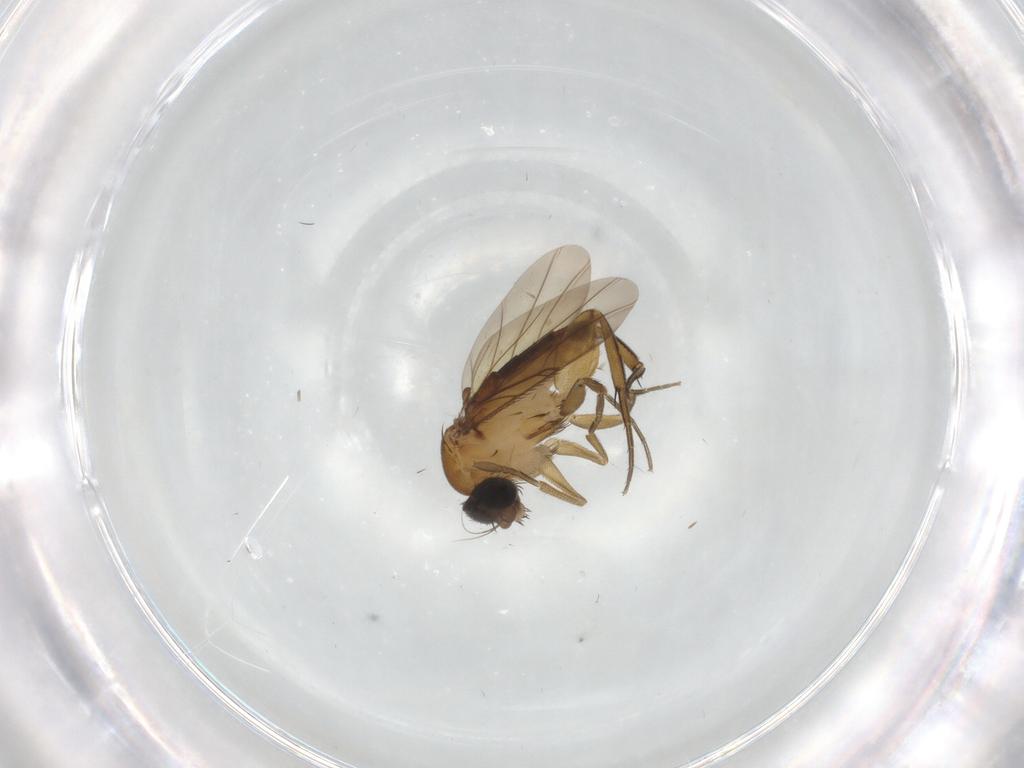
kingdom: Animalia
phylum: Arthropoda
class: Insecta
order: Diptera
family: Phoridae
